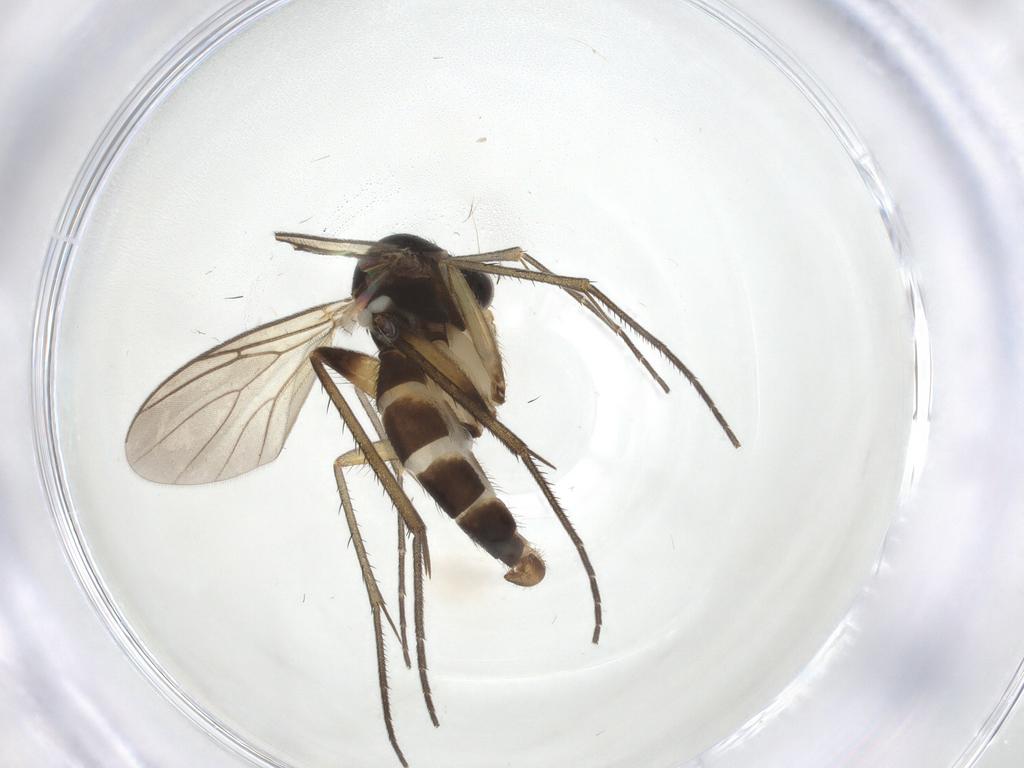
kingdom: Animalia
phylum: Arthropoda
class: Insecta
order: Diptera
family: Mycetophilidae
